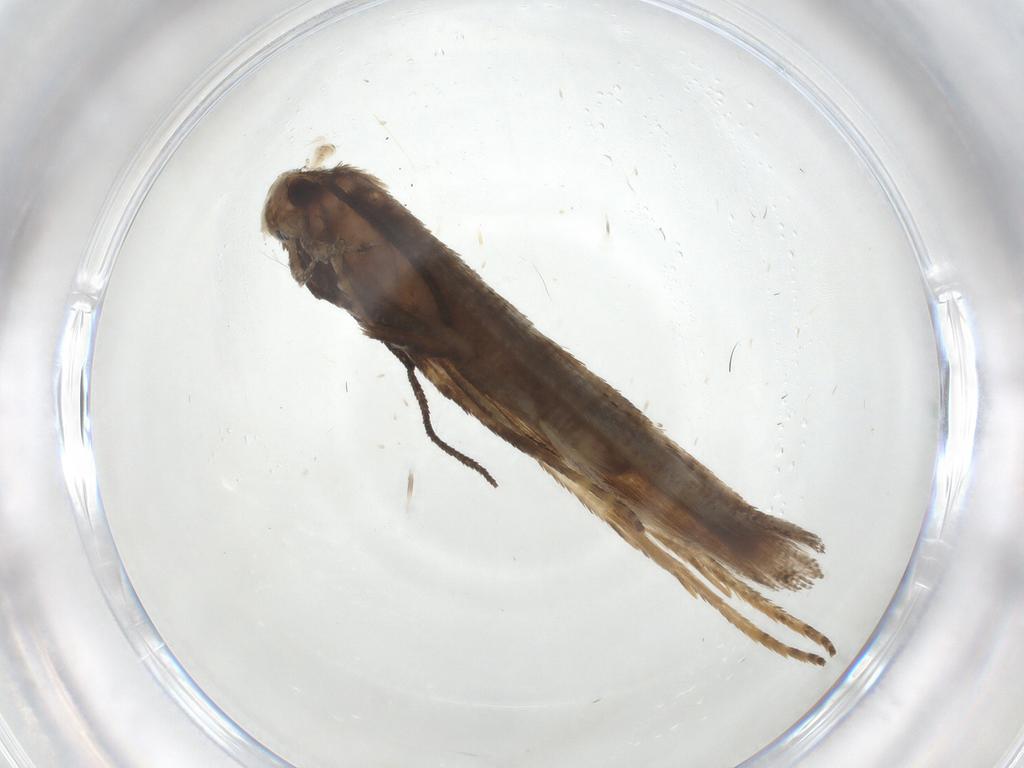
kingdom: Animalia
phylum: Arthropoda
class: Insecta
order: Lepidoptera
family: Momphidae
